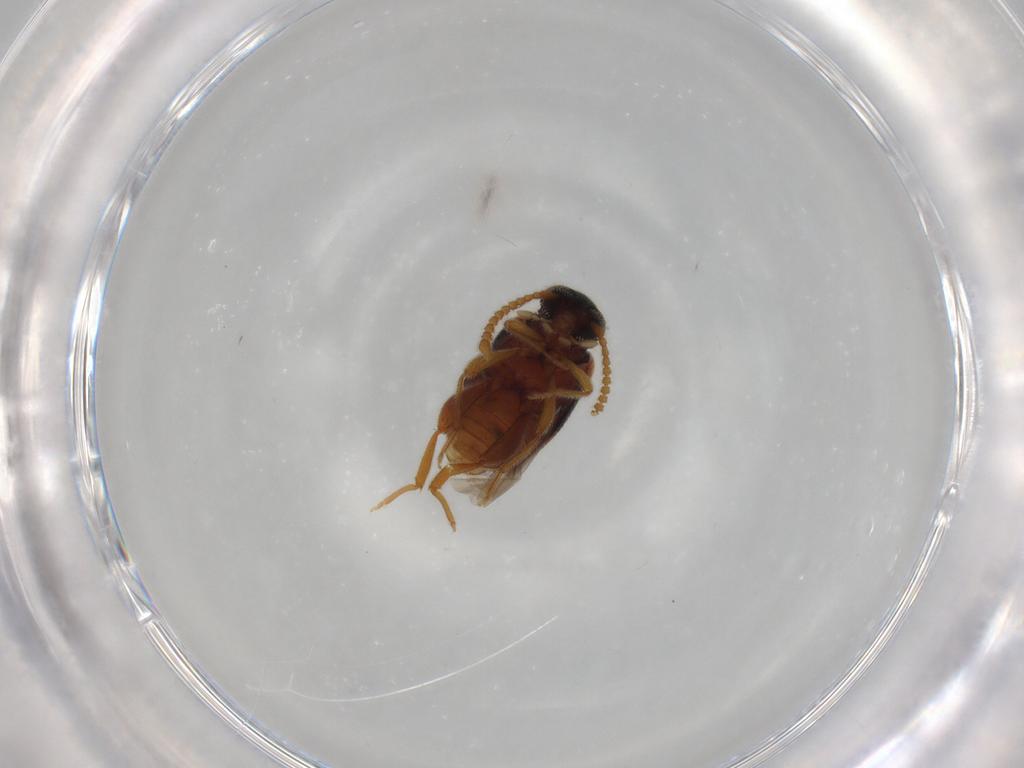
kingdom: Animalia
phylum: Arthropoda
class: Insecta
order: Coleoptera
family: Aderidae
